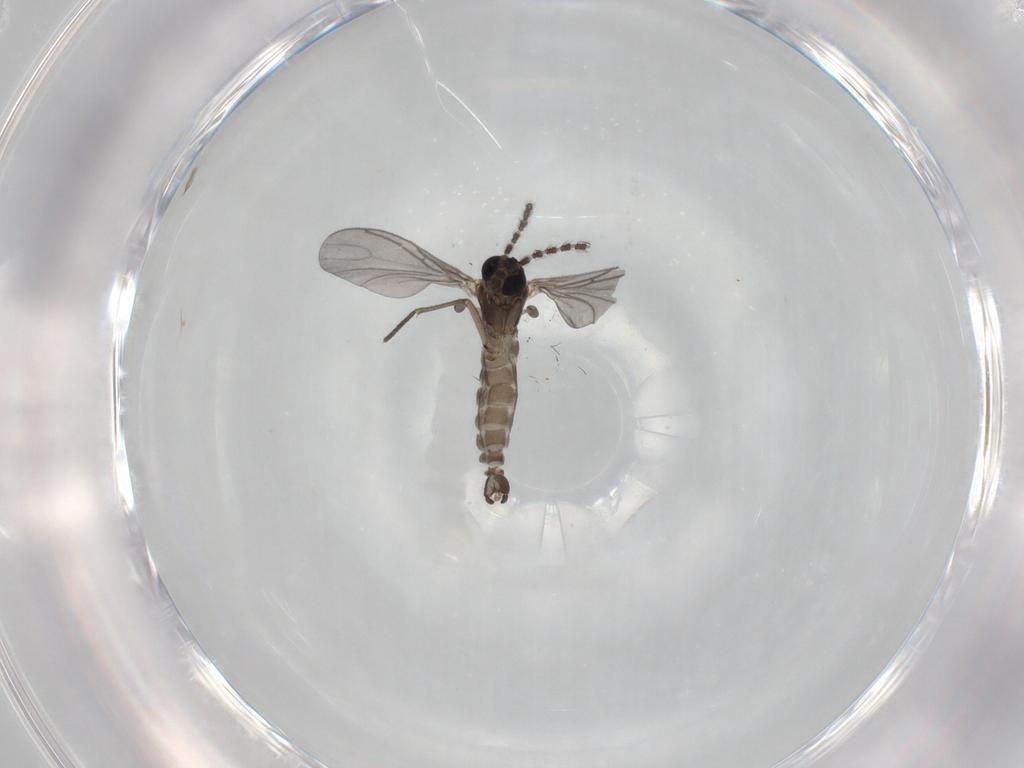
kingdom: Animalia
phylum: Arthropoda
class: Insecta
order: Diptera
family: Sciaridae
